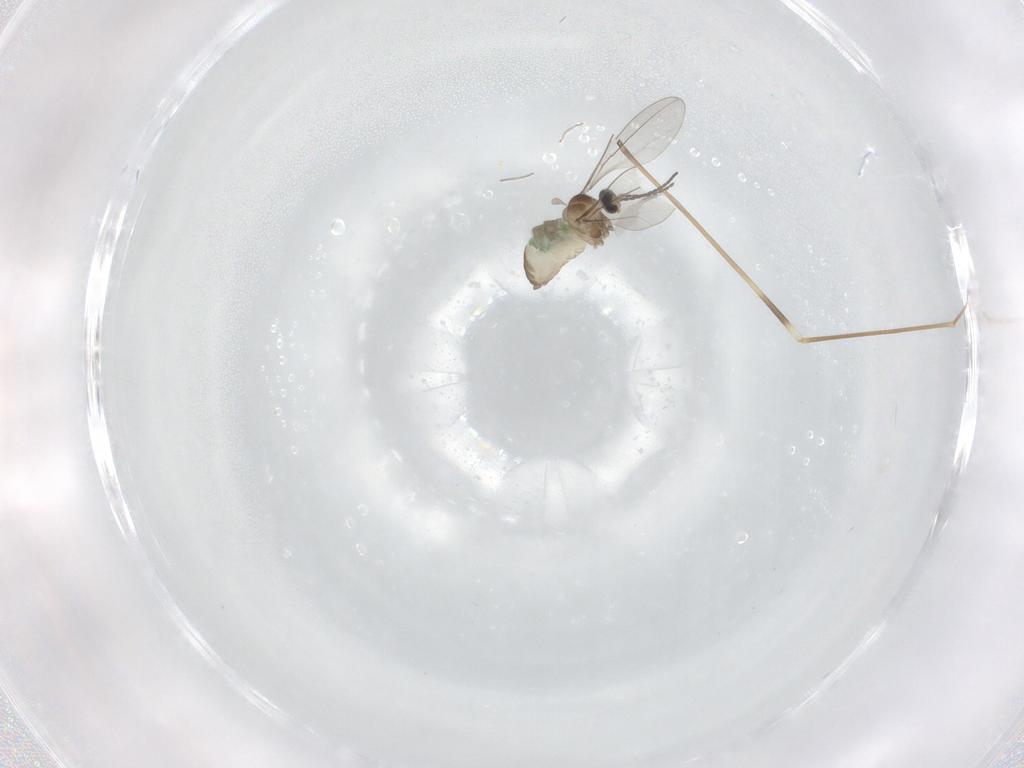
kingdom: Animalia
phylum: Arthropoda
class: Insecta
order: Diptera
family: Cecidomyiidae
